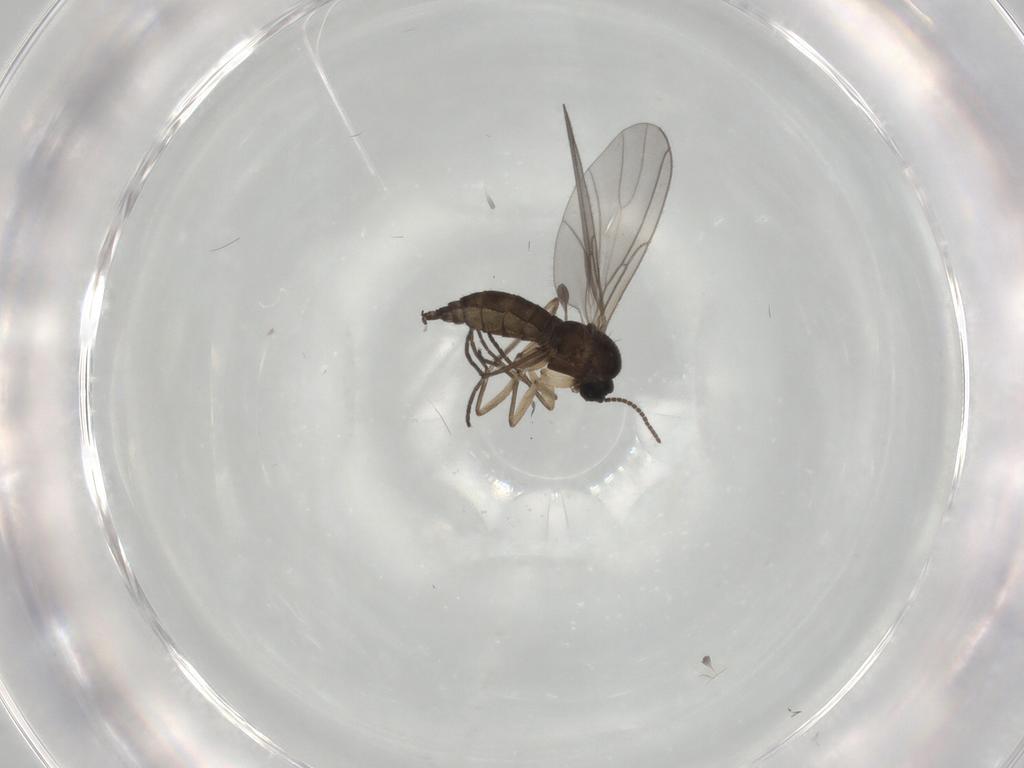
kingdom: Animalia
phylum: Arthropoda
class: Insecta
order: Diptera
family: Sciaridae
